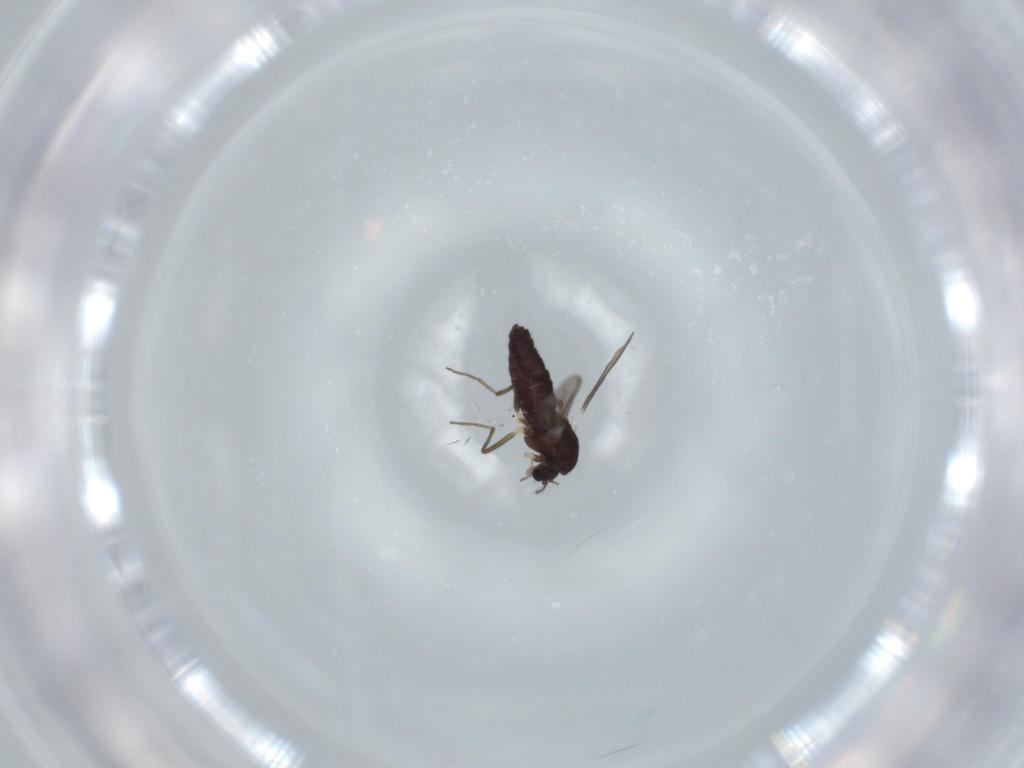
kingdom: Animalia
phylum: Arthropoda
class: Insecta
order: Diptera
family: Chironomidae
